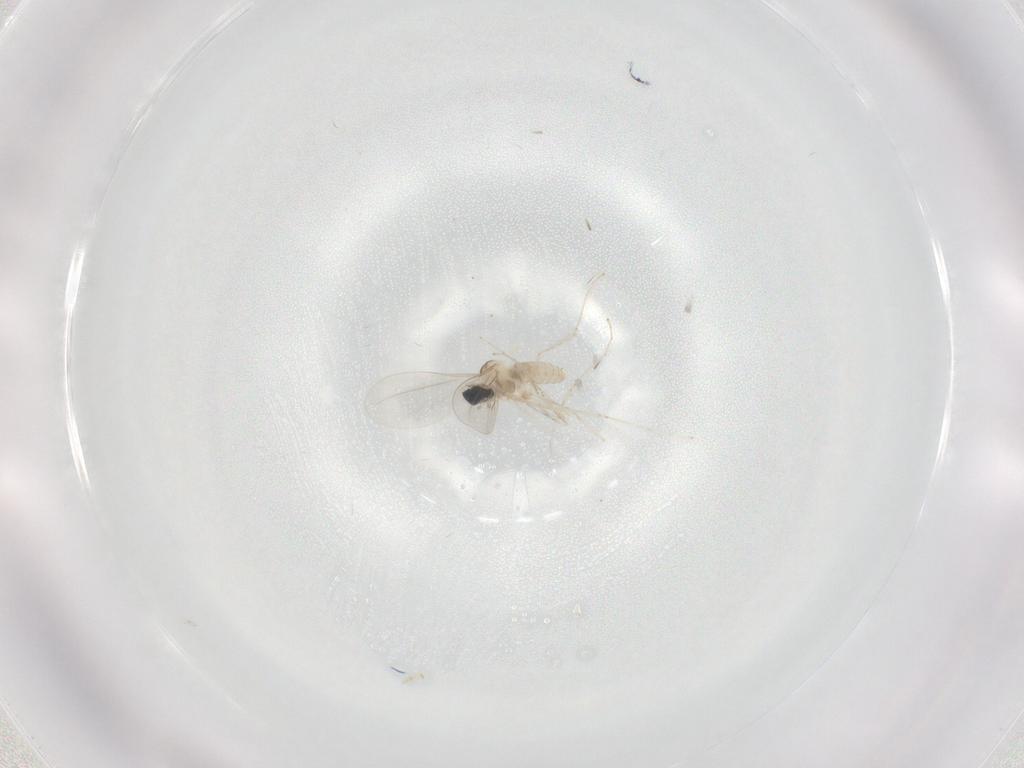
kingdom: Animalia
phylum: Arthropoda
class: Insecta
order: Diptera
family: Cecidomyiidae
